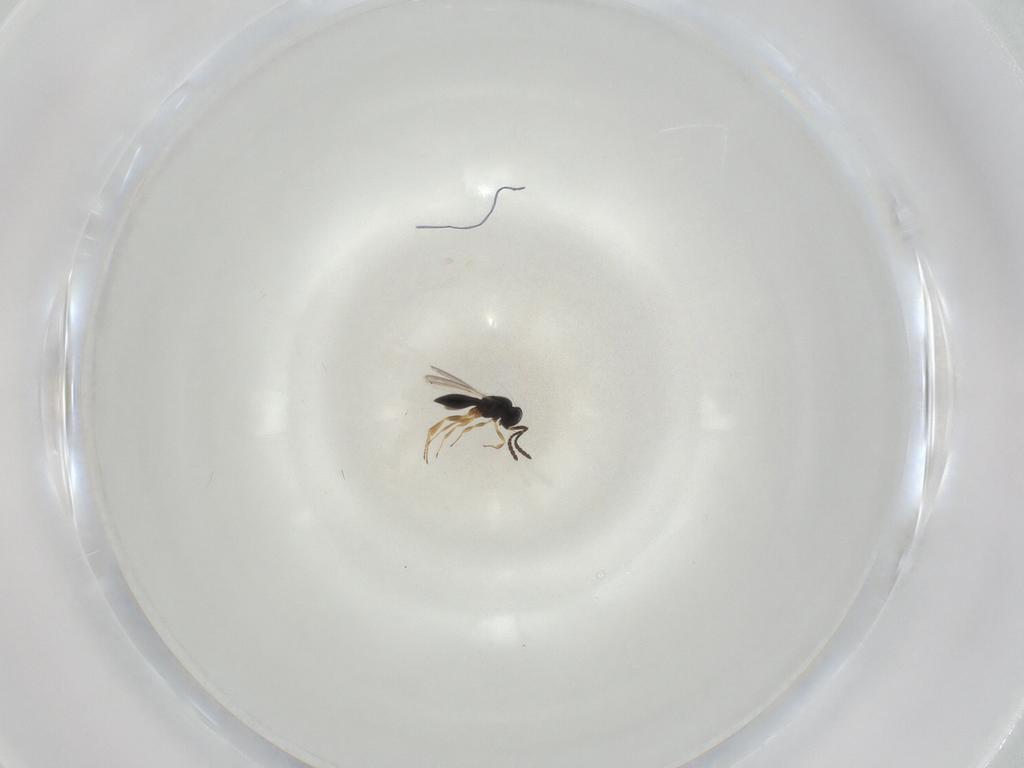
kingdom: Animalia
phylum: Arthropoda
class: Insecta
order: Hymenoptera
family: Scelionidae
